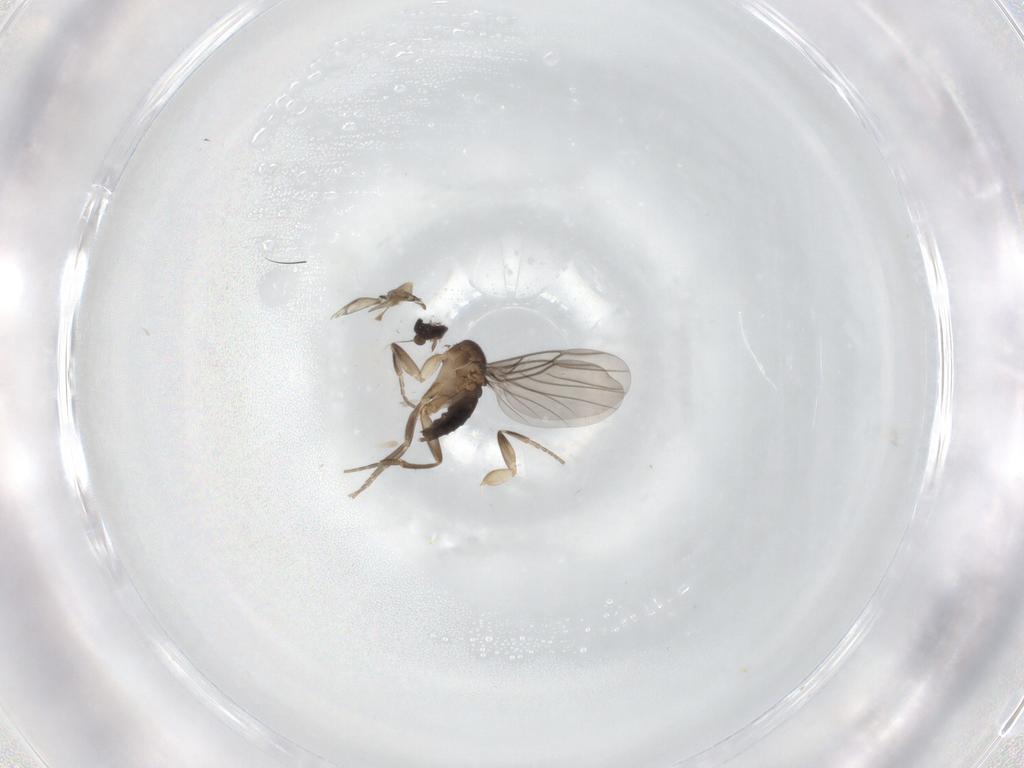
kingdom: Animalia
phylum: Arthropoda
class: Insecta
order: Diptera
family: Phoridae
